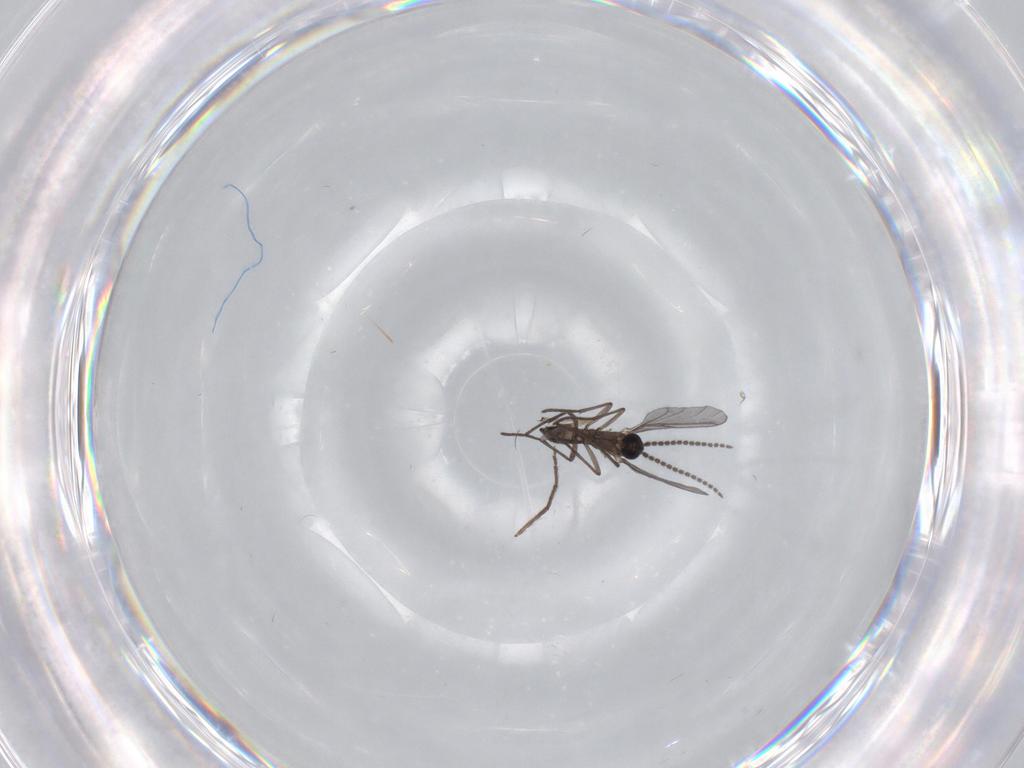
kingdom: Animalia
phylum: Arthropoda
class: Insecta
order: Diptera
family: Chironomidae
